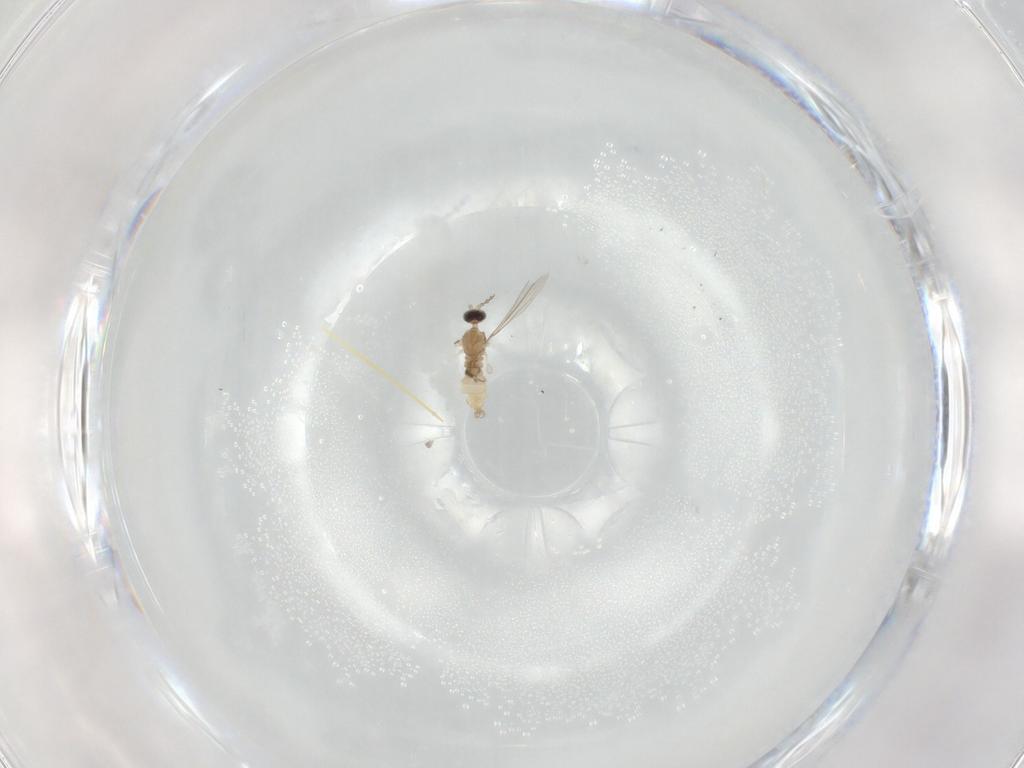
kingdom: Animalia
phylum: Arthropoda
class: Insecta
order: Diptera
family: Cecidomyiidae
